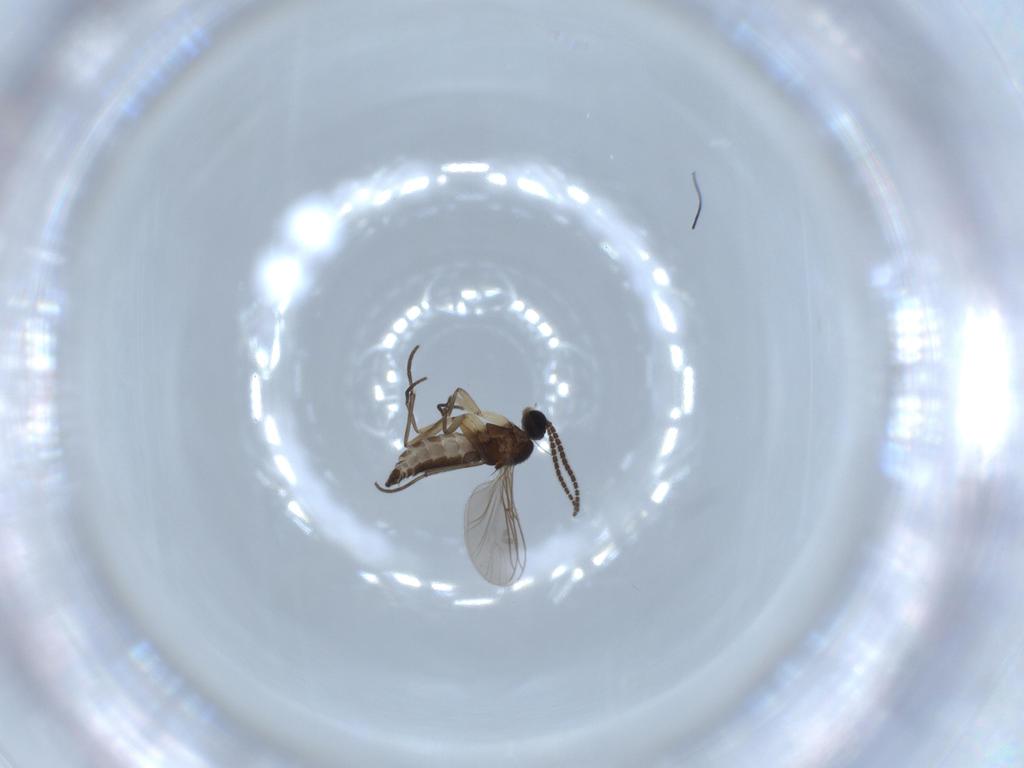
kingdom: Animalia
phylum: Arthropoda
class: Insecta
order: Diptera
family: Sciaridae
